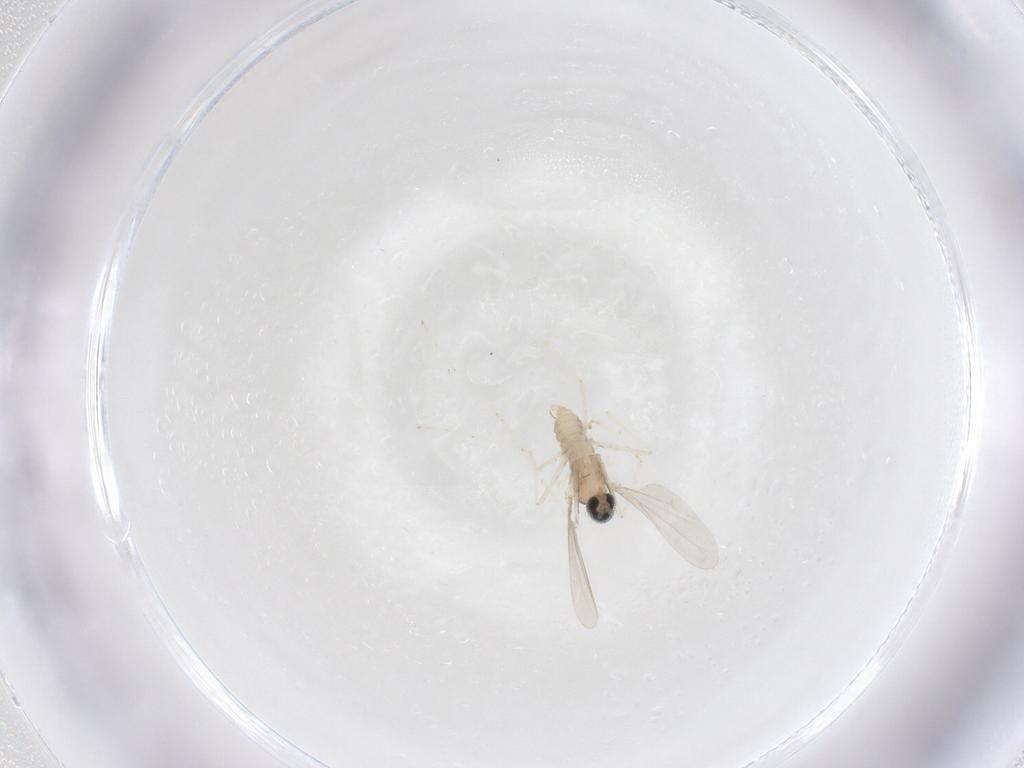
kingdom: Animalia
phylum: Arthropoda
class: Insecta
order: Diptera
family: Cecidomyiidae
